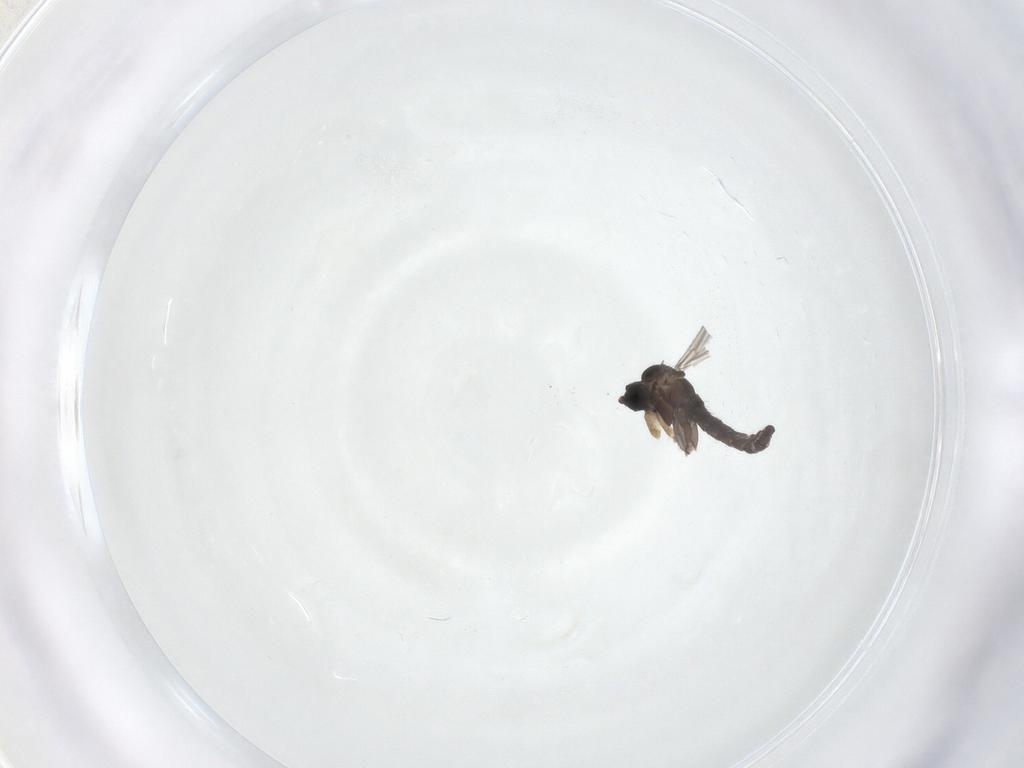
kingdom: Animalia
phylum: Arthropoda
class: Insecta
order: Diptera
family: Sciaridae
